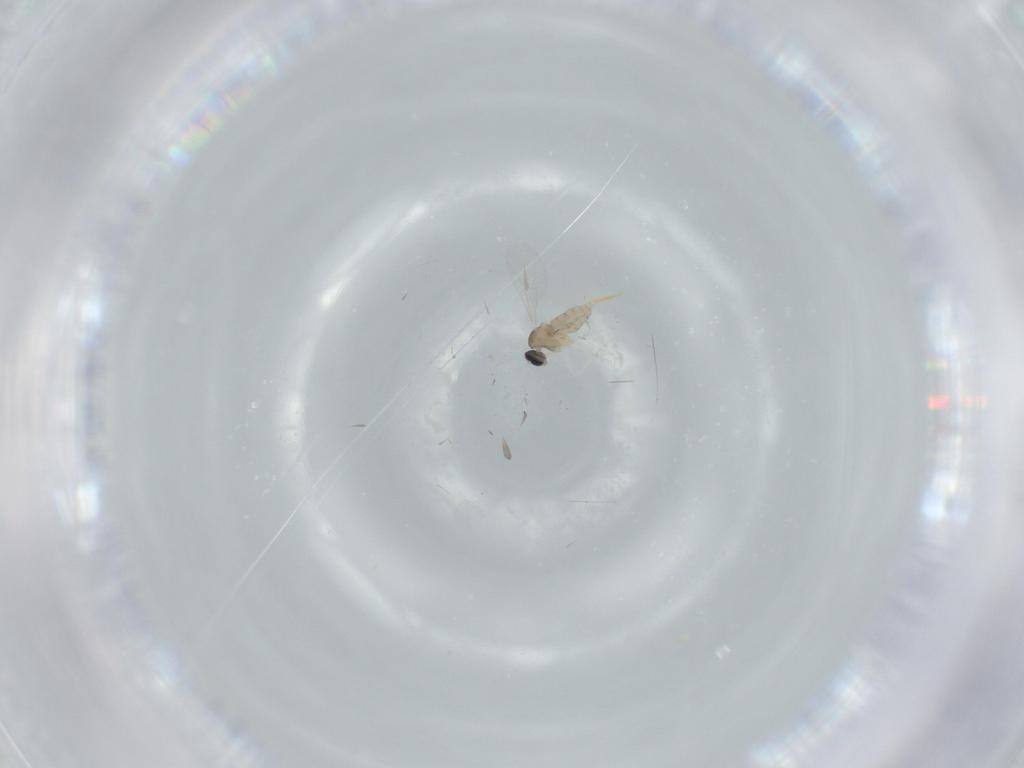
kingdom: Animalia
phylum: Arthropoda
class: Insecta
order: Diptera
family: Cecidomyiidae
